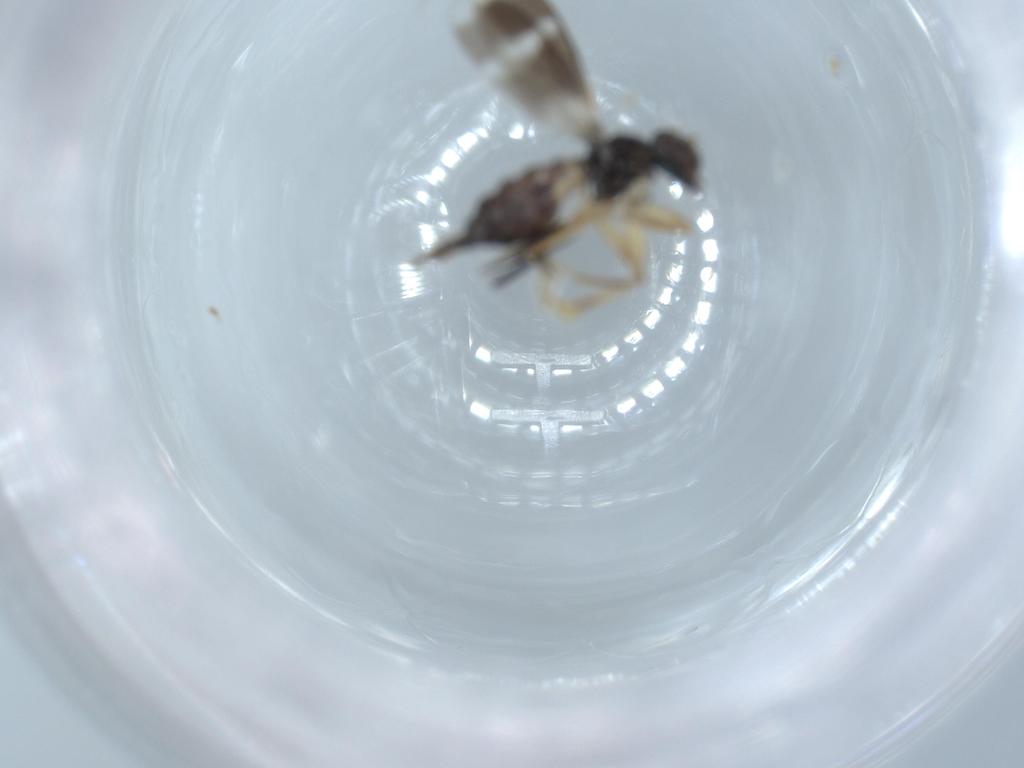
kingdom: Animalia
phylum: Arthropoda
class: Insecta
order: Diptera
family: Hybotidae
